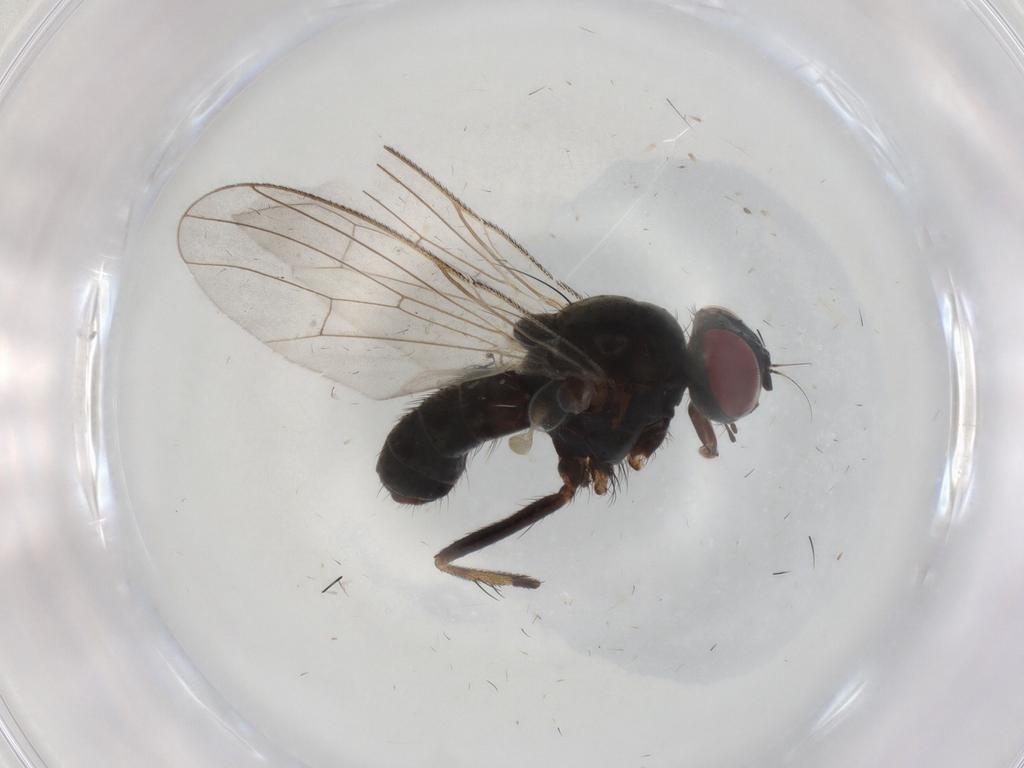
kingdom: Animalia
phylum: Arthropoda
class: Insecta
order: Diptera
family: Muscidae
